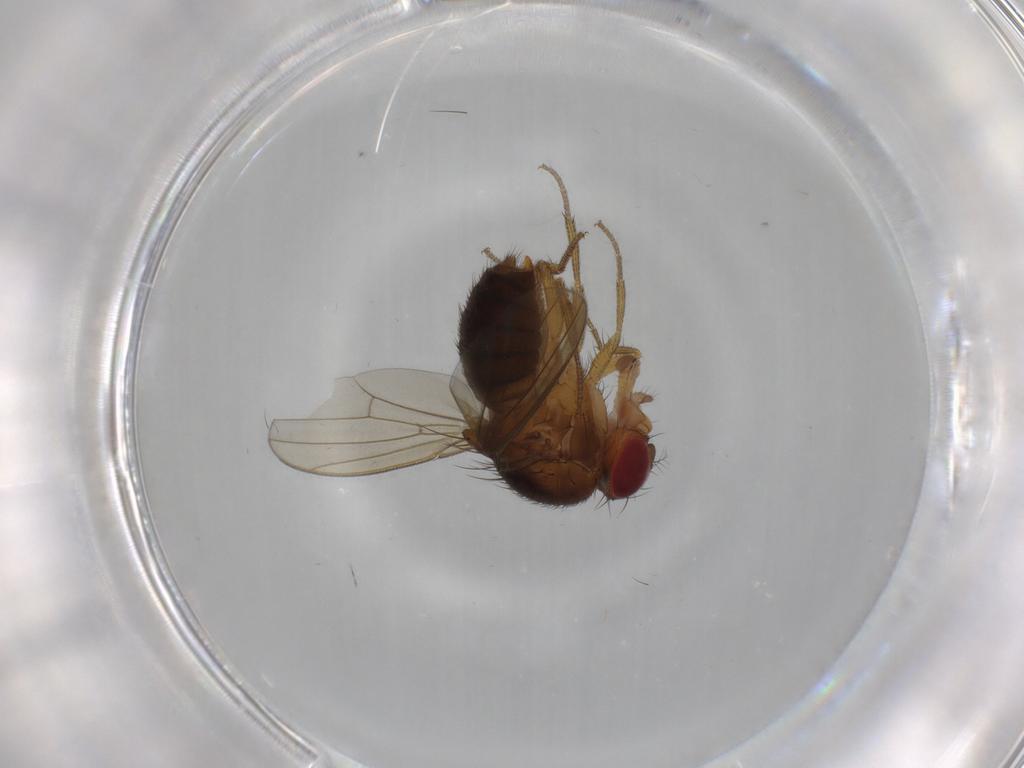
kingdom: Animalia
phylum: Arthropoda
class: Insecta
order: Diptera
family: Drosophilidae
